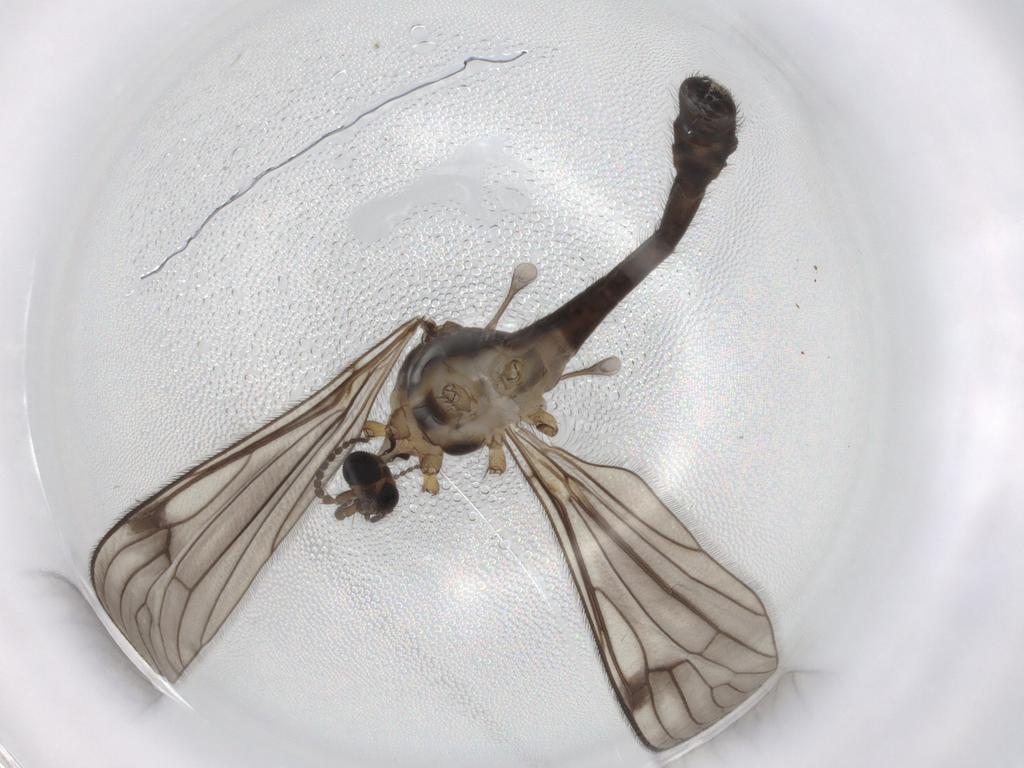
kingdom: Animalia
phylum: Arthropoda
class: Insecta
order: Diptera
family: Limoniidae
